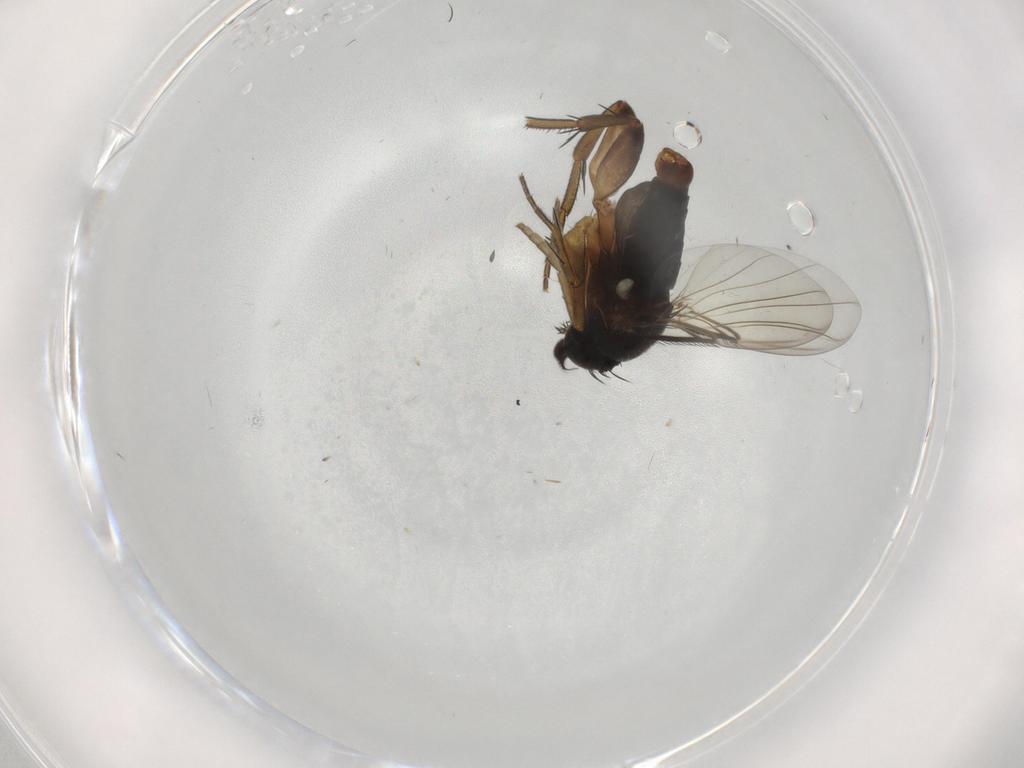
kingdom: Animalia
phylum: Arthropoda
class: Insecta
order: Diptera
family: Phoridae
